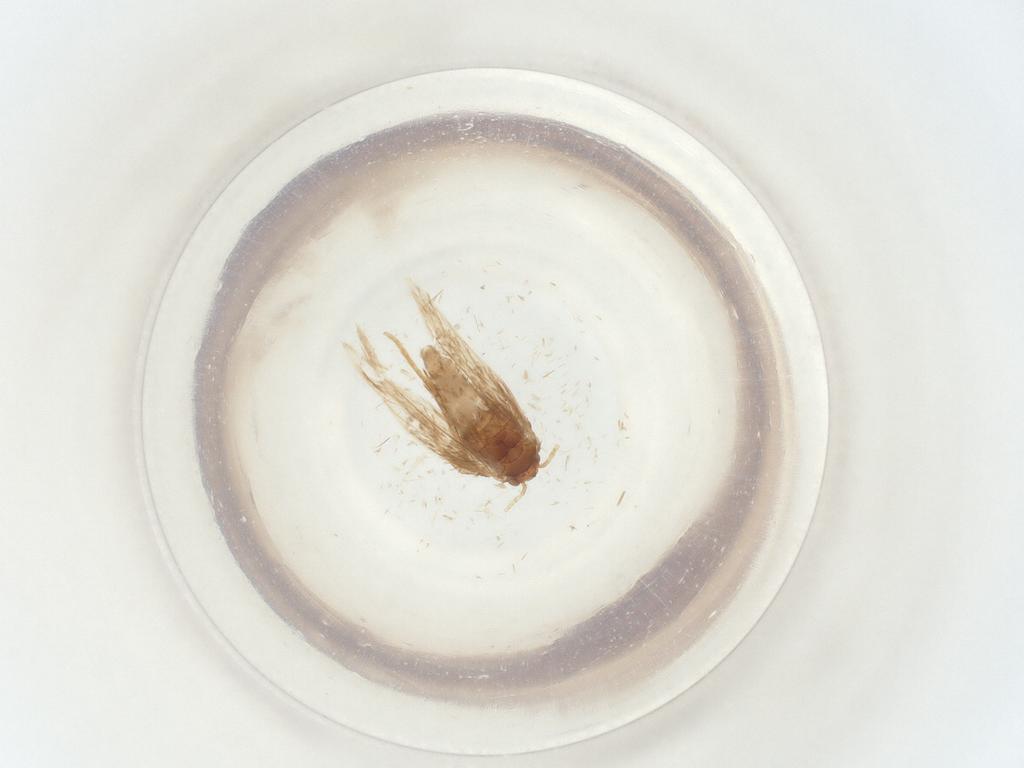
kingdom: Animalia
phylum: Arthropoda
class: Insecta
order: Lepidoptera
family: Nepticulidae
